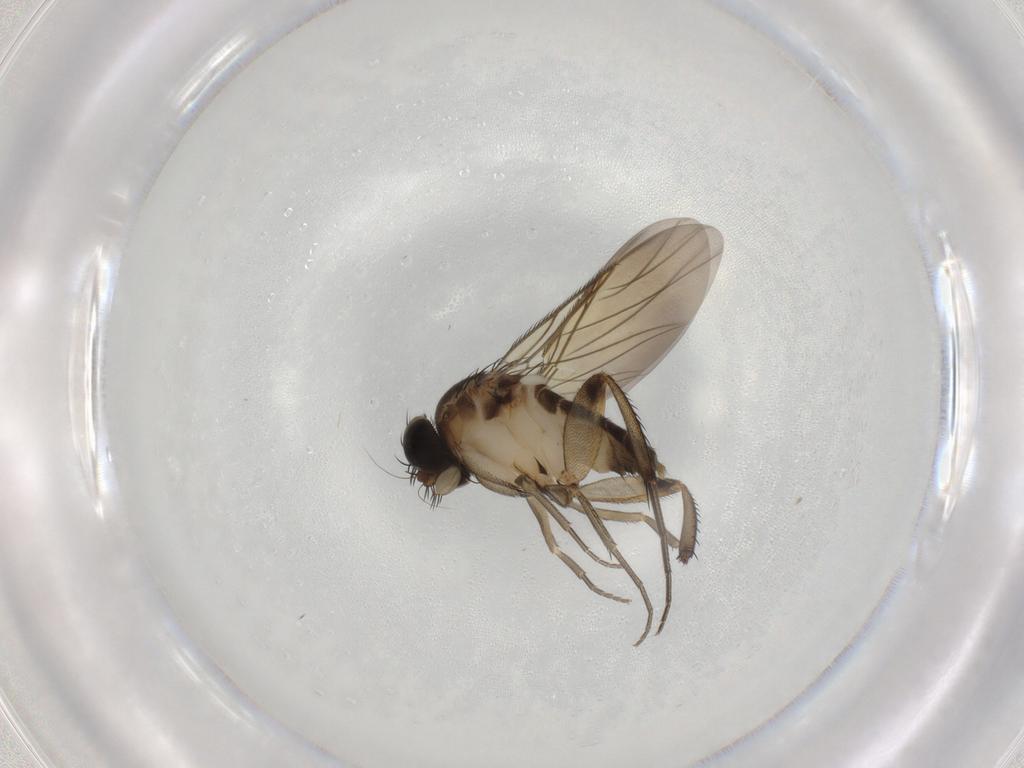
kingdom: Animalia
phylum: Arthropoda
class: Insecta
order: Diptera
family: Phoridae
